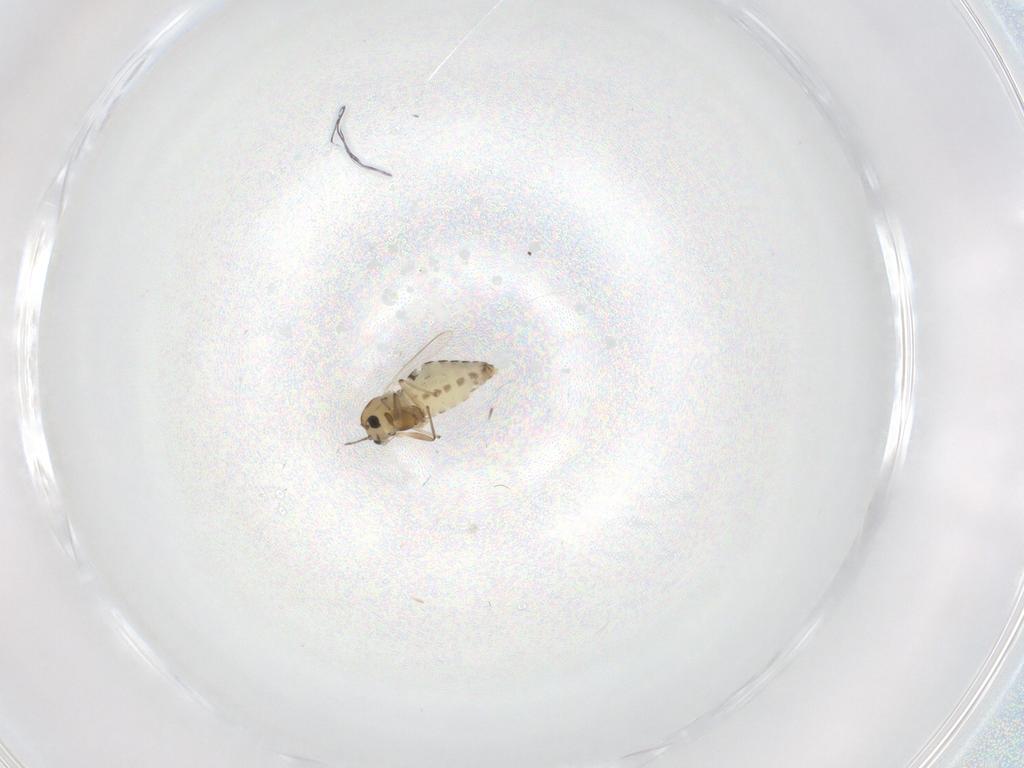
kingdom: Animalia
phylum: Arthropoda
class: Insecta
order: Diptera
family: Chironomidae
